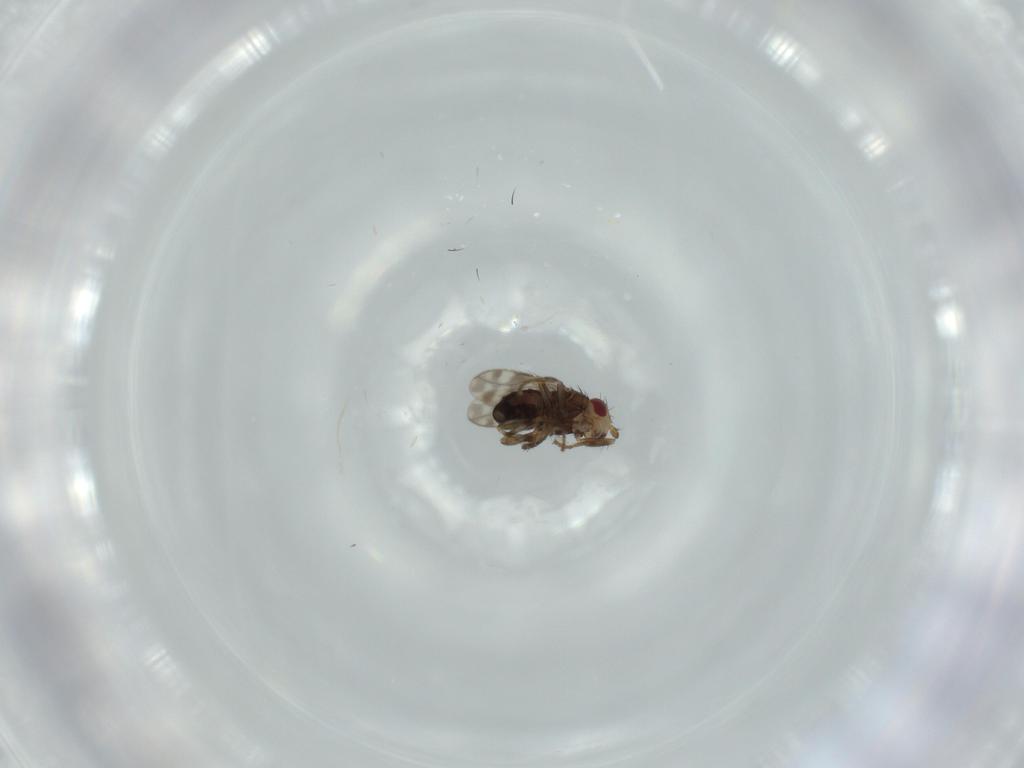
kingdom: Animalia
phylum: Arthropoda
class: Insecta
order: Diptera
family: Sphaeroceridae
